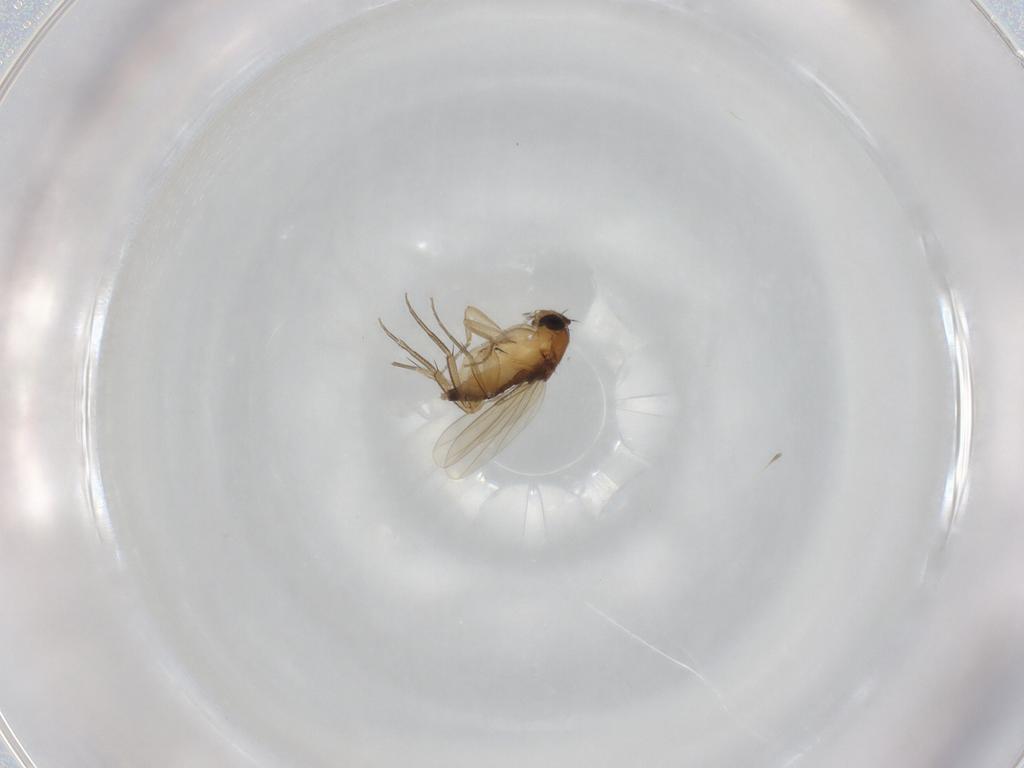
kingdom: Animalia
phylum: Arthropoda
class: Insecta
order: Diptera
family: Phoridae
